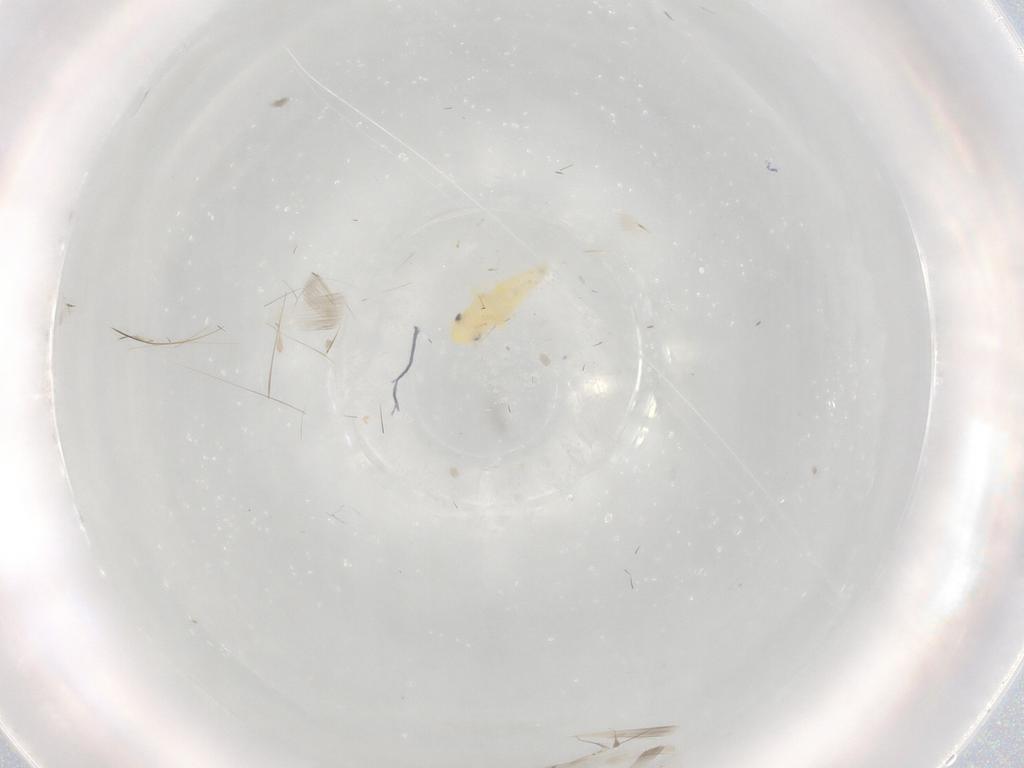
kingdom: Animalia
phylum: Arthropoda
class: Insecta
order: Hemiptera
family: Cicadellidae
